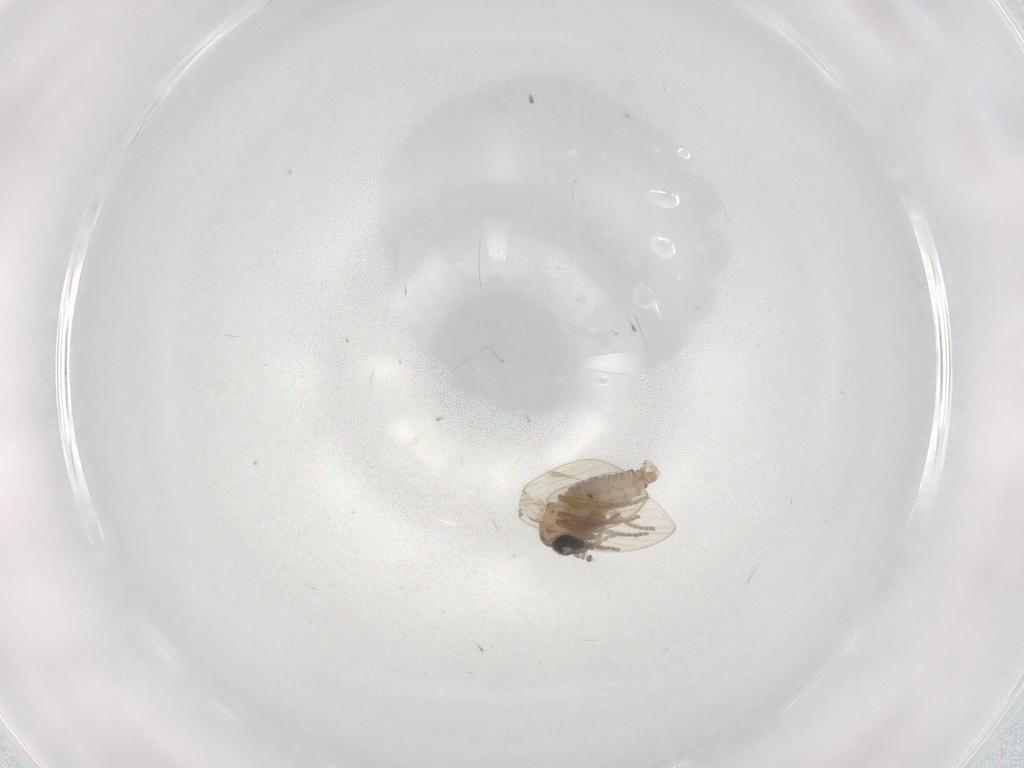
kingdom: Animalia
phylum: Arthropoda
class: Insecta
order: Diptera
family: Psychodidae
